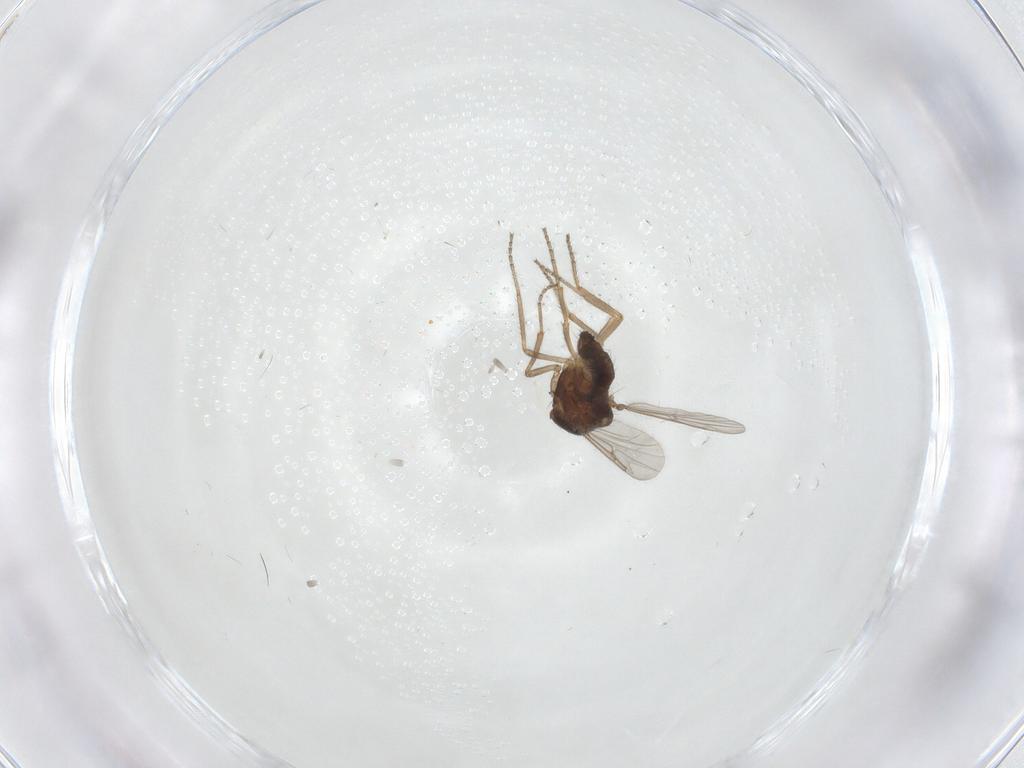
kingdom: Animalia
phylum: Arthropoda
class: Insecta
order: Diptera
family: Ceratopogonidae
